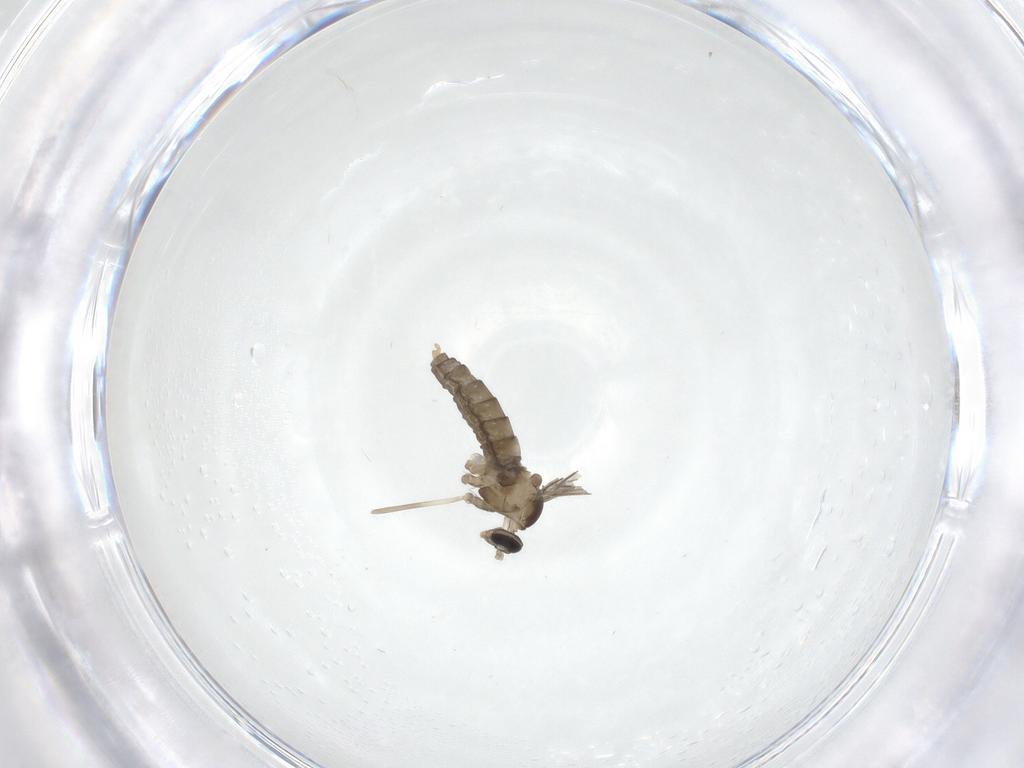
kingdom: Animalia
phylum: Arthropoda
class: Insecta
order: Diptera
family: Cecidomyiidae
